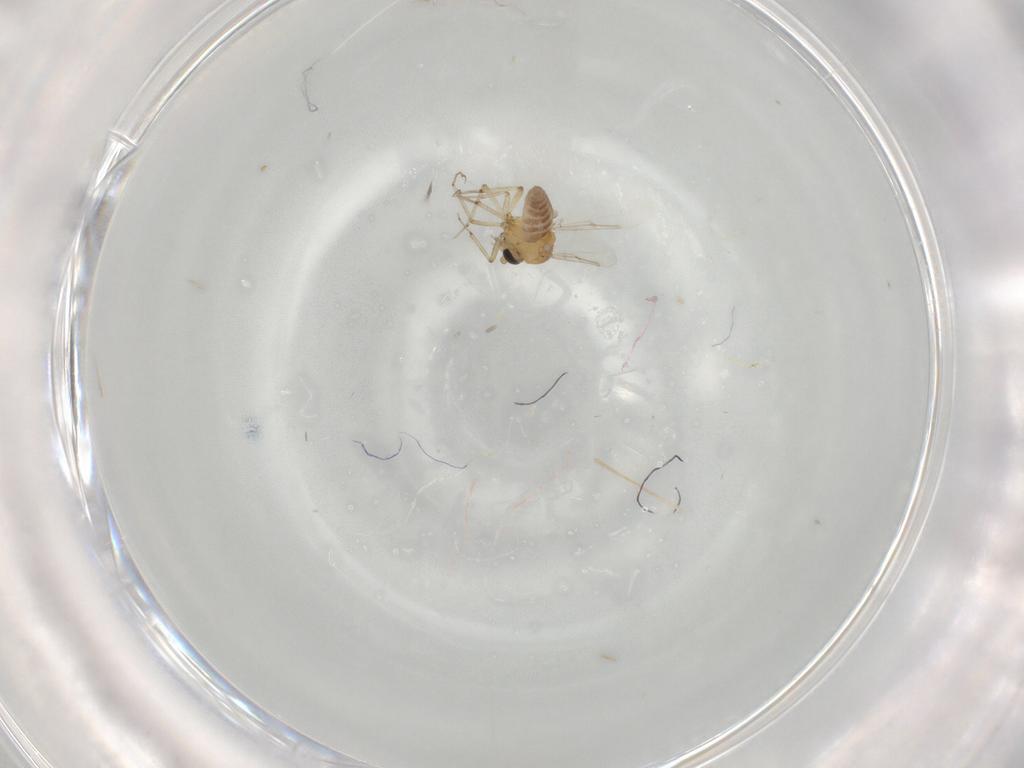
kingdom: Animalia
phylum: Arthropoda
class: Insecta
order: Diptera
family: Ceratopogonidae
